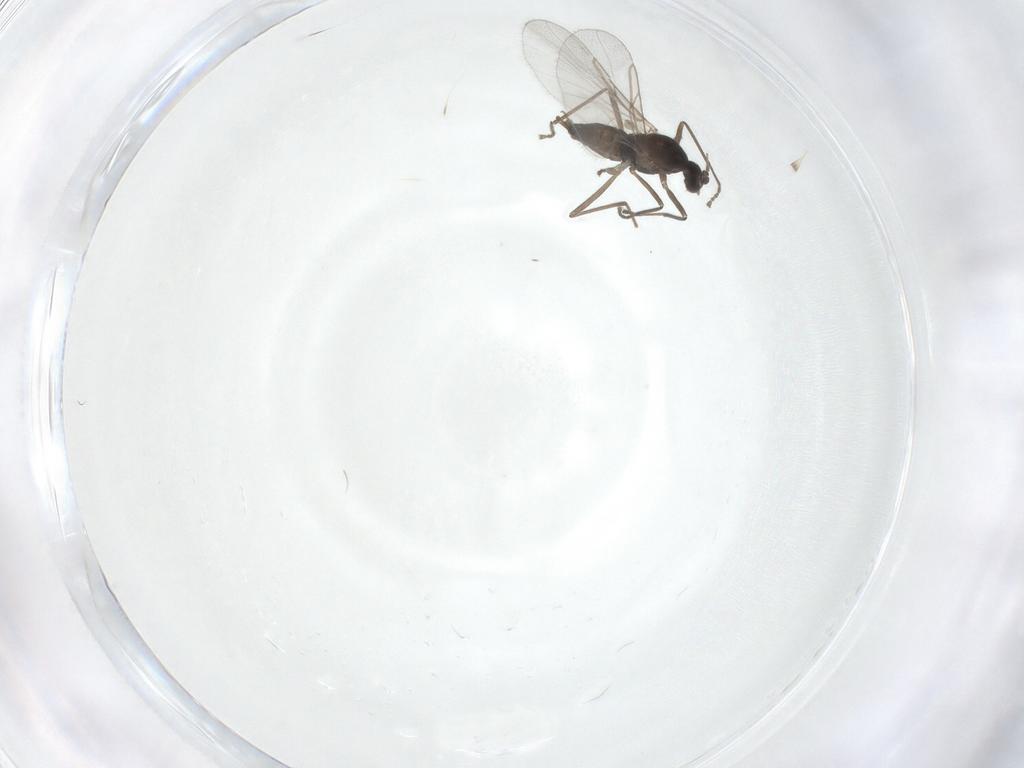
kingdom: Animalia
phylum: Arthropoda
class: Insecta
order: Diptera
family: Cecidomyiidae
